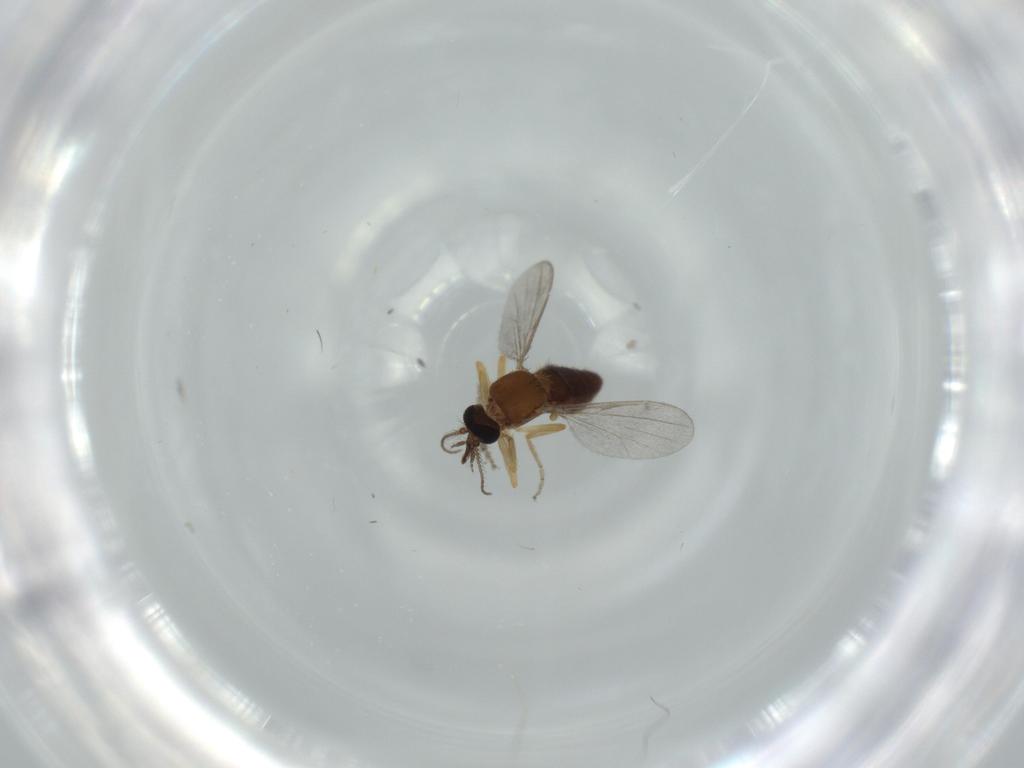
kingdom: Animalia
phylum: Arthropoda
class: Insecta
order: Diptera
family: Ceratopogonidae
